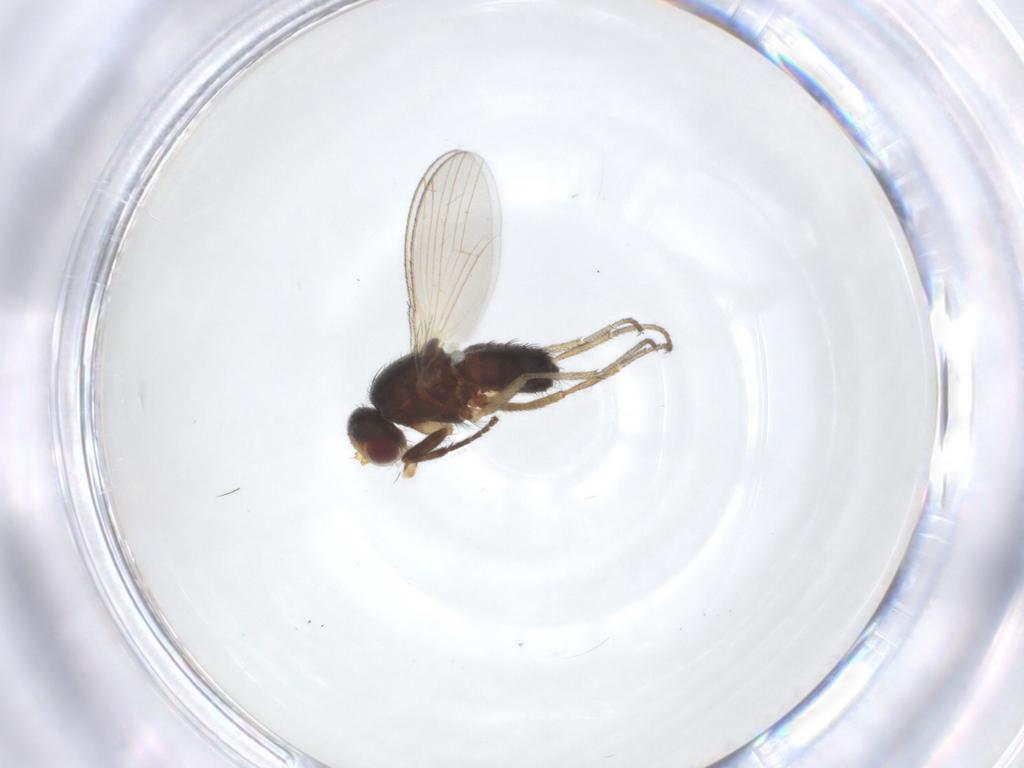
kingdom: Animalia
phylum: Arthropoda
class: Insecta
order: Diptera
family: Heleomyzidae
